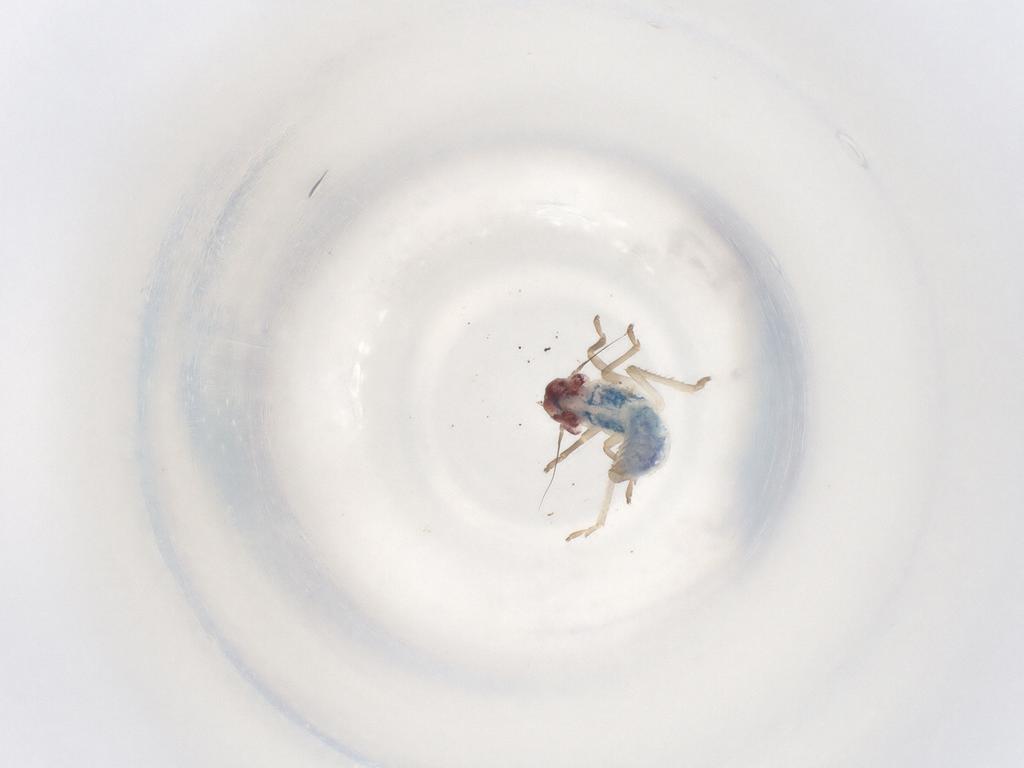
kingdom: Animalia
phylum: Arthropoda
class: Insecta
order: Hemiptera
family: Cicadellidae
